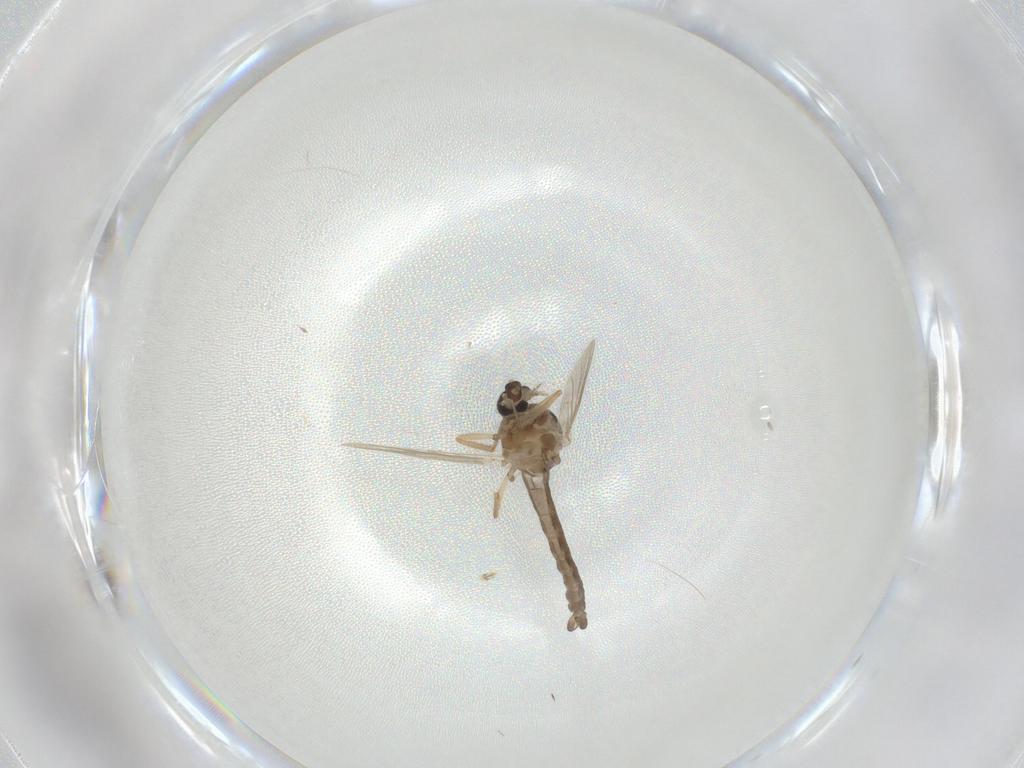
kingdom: Animalia
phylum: Arthropoda
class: Insecta
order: Diptera
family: Ceratopogonidae
